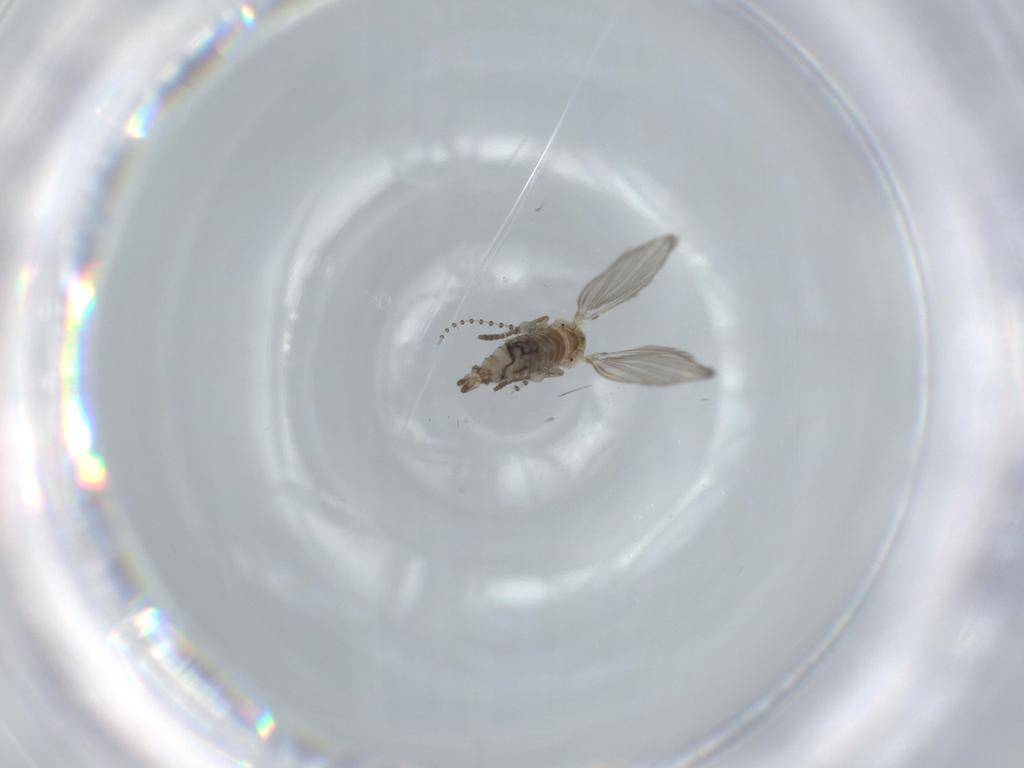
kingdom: Animalia
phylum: Arthropoda
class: Insecta
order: Diptera
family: Psychodidae
